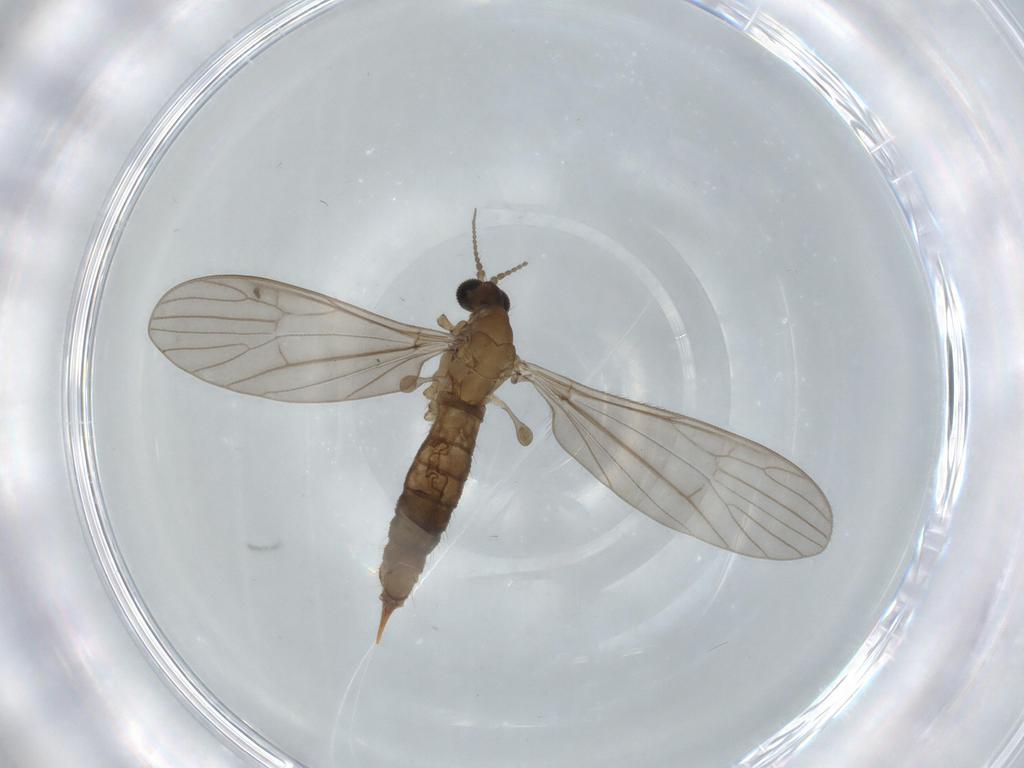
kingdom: Animalia
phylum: Arthropoda
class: Insecta
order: Diptera
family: Limoniidae
